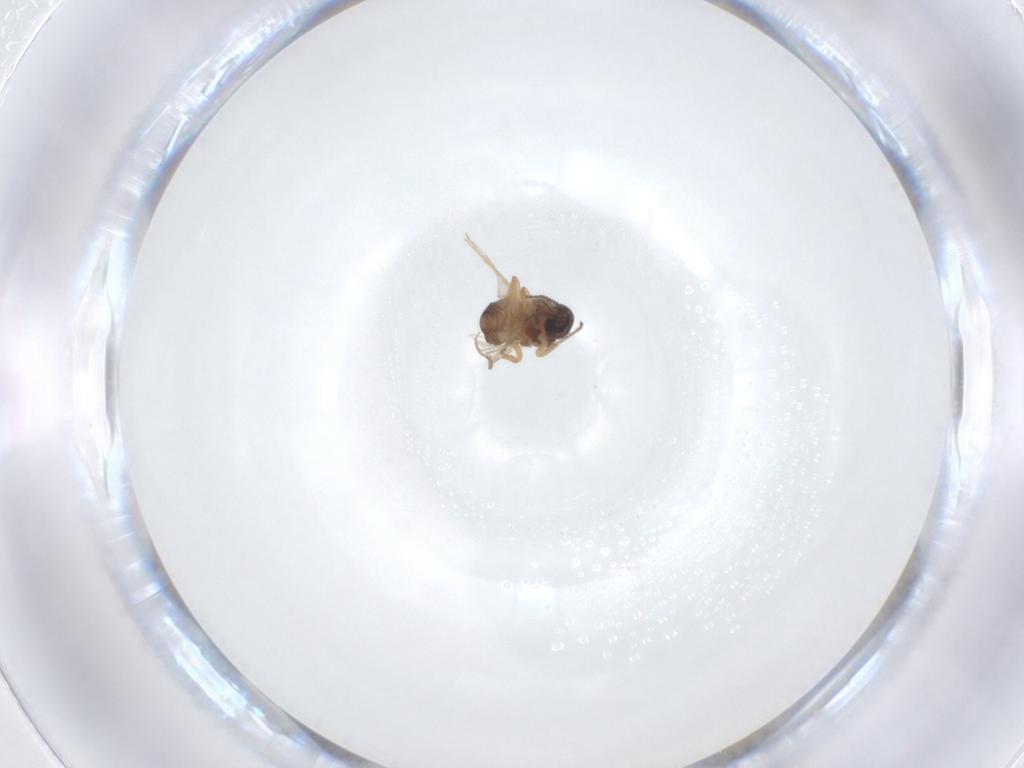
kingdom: Animalia
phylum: Arthropoda
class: Insecta
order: Diptera
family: Ceratopogonidae
